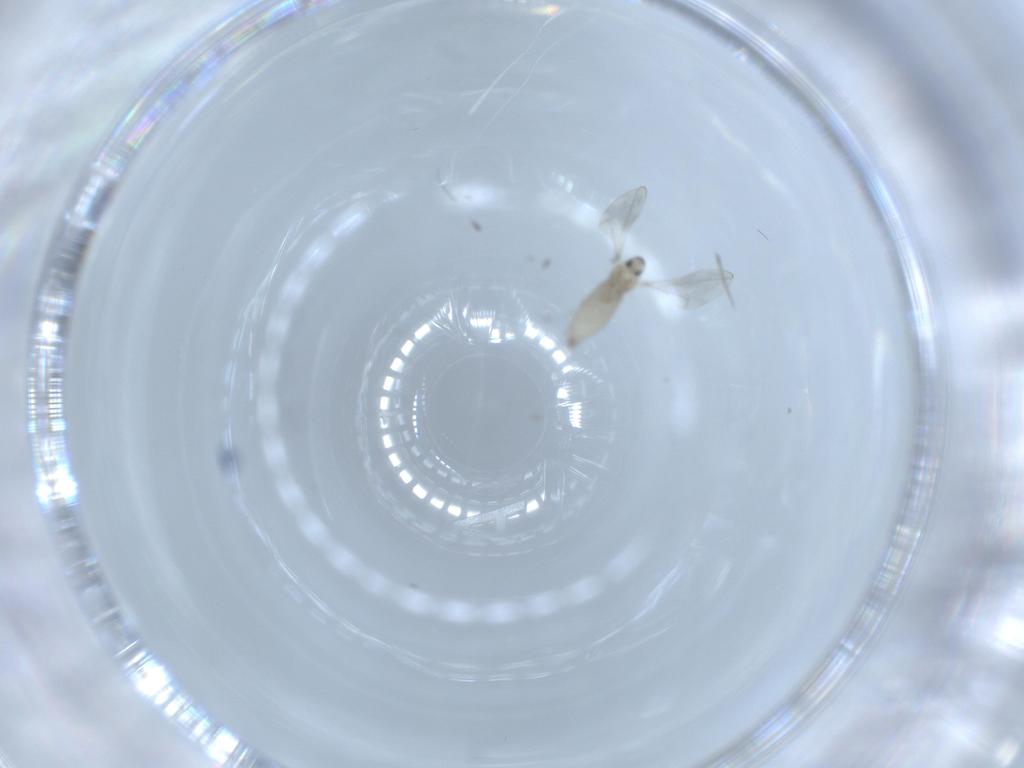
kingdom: Animalia
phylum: Arthropoda
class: Insecta
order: Diptera
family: Cecidomyiidae
